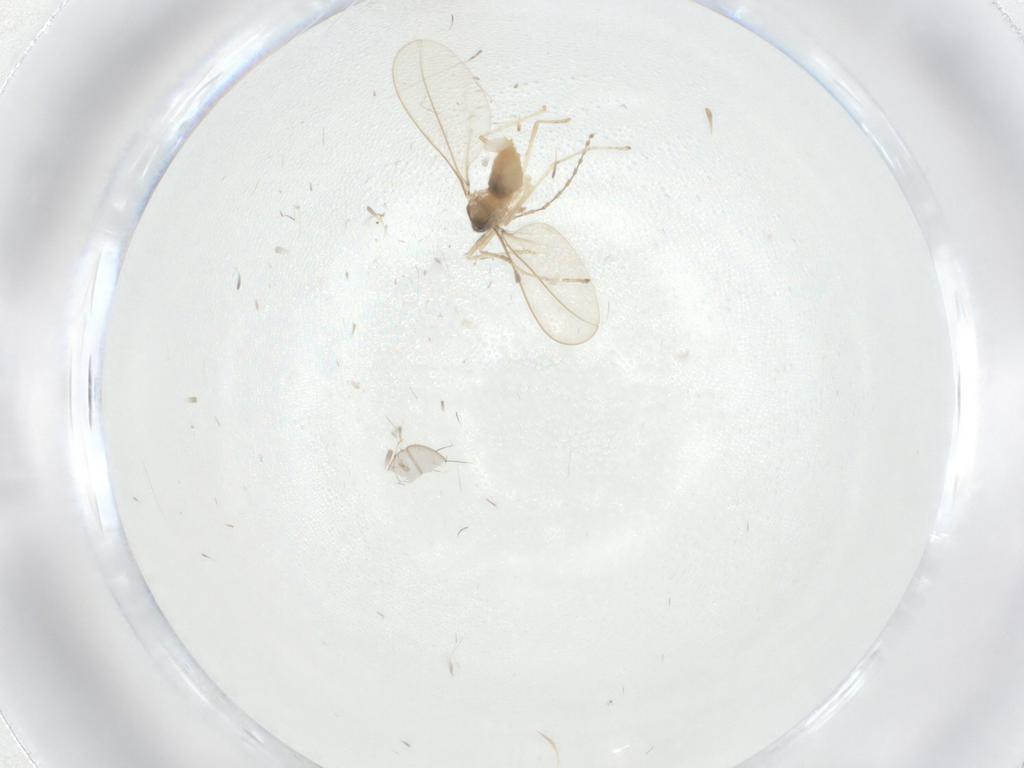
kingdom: Animalia
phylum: Arthropoda
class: Insecta
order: Diptera
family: Cecidomyiidae
